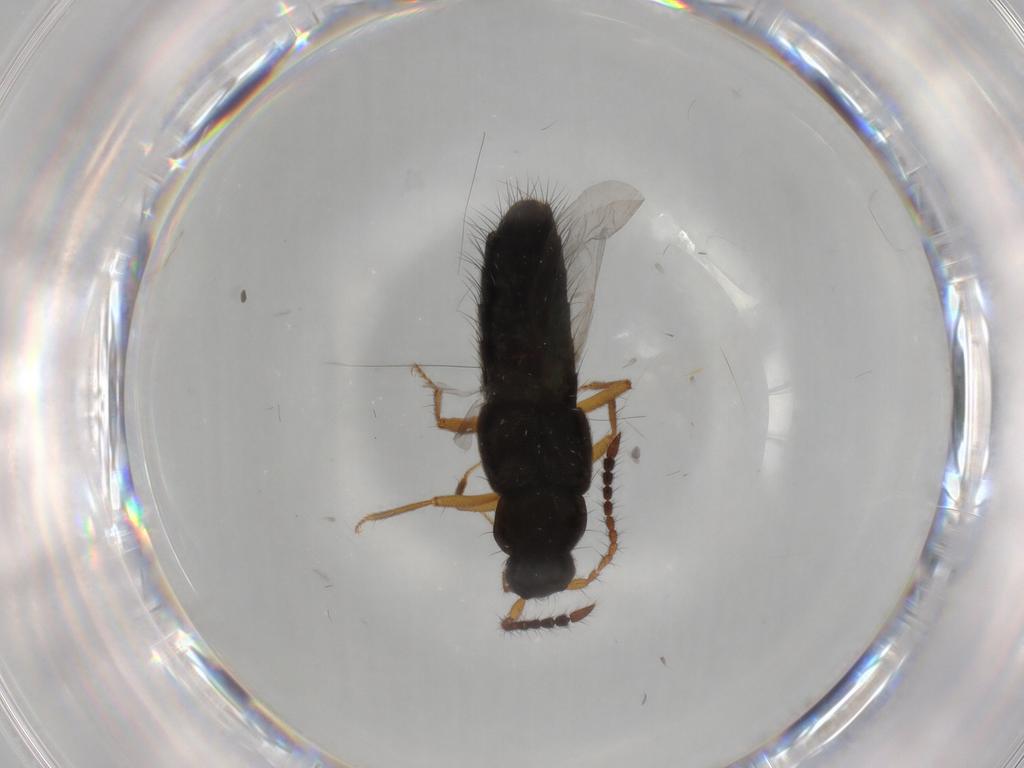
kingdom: Animalia
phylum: Arthropoda
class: Insecta
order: Coleoptera
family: Staphylinidae
